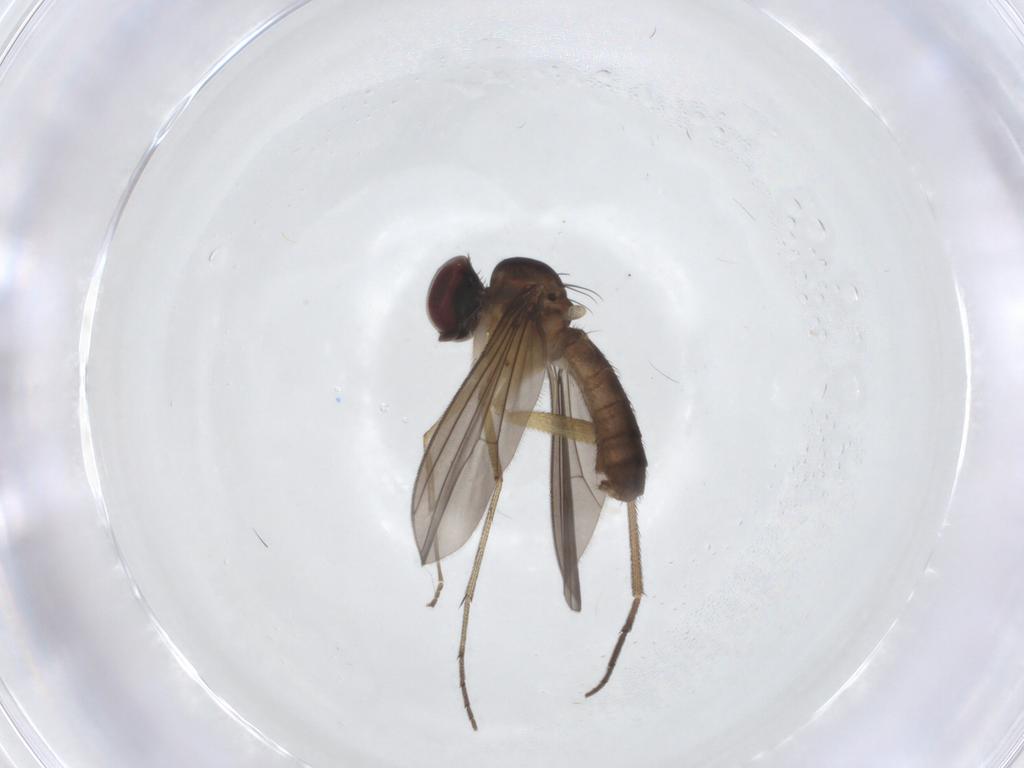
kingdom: Animalia
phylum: Arthropoda
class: Insecta
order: Diptera
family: Dolichopodidae
